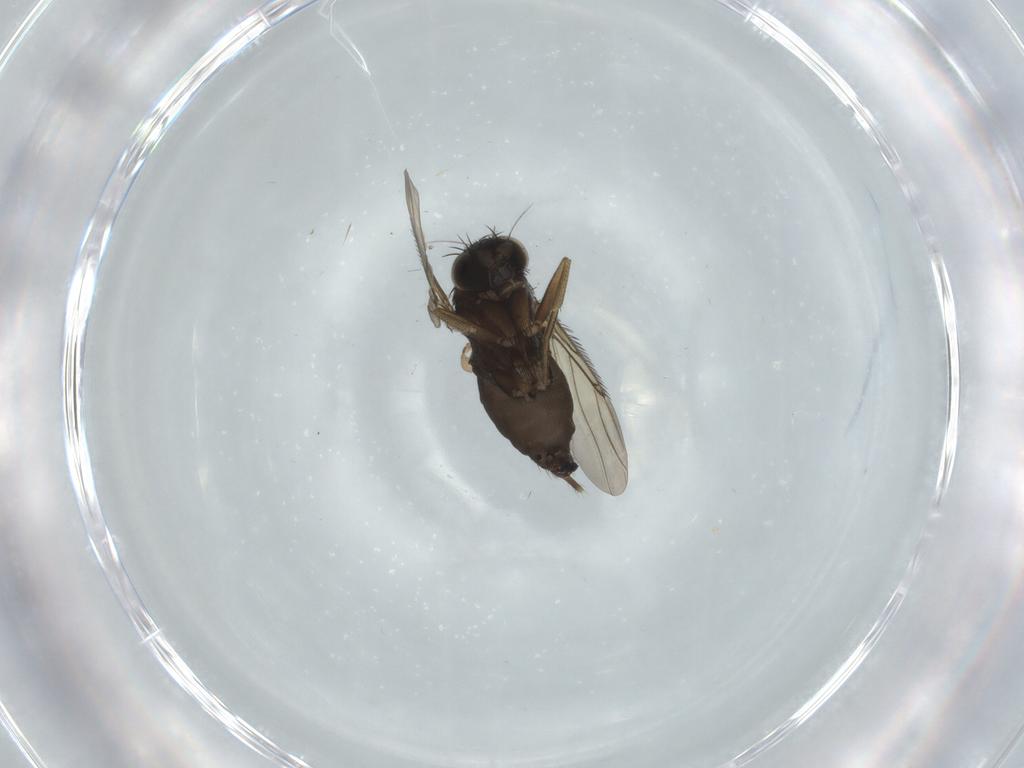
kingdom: Animalia
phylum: Arthropoda
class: Insecta
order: Diptera
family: Phoridae
